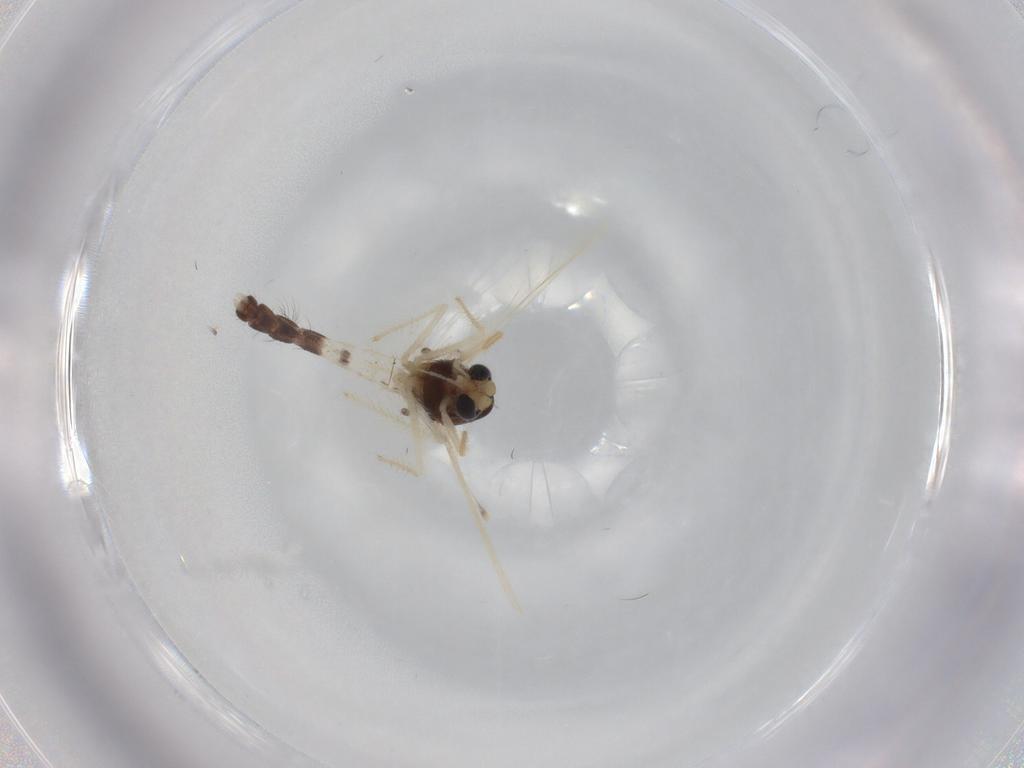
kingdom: Animalia
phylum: Arthropoda
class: Insecta
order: Diptera
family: Chironomidae
